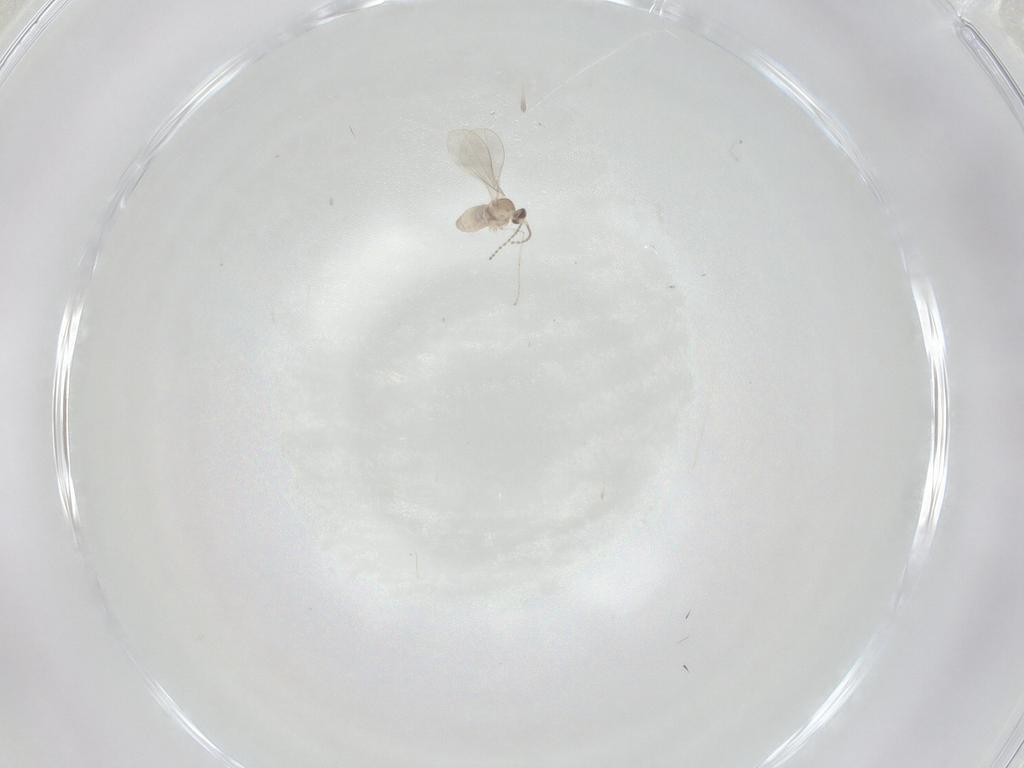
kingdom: Animalia
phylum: Arthropoda
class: Insecta
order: Diptera
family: Cecidomyiidae
